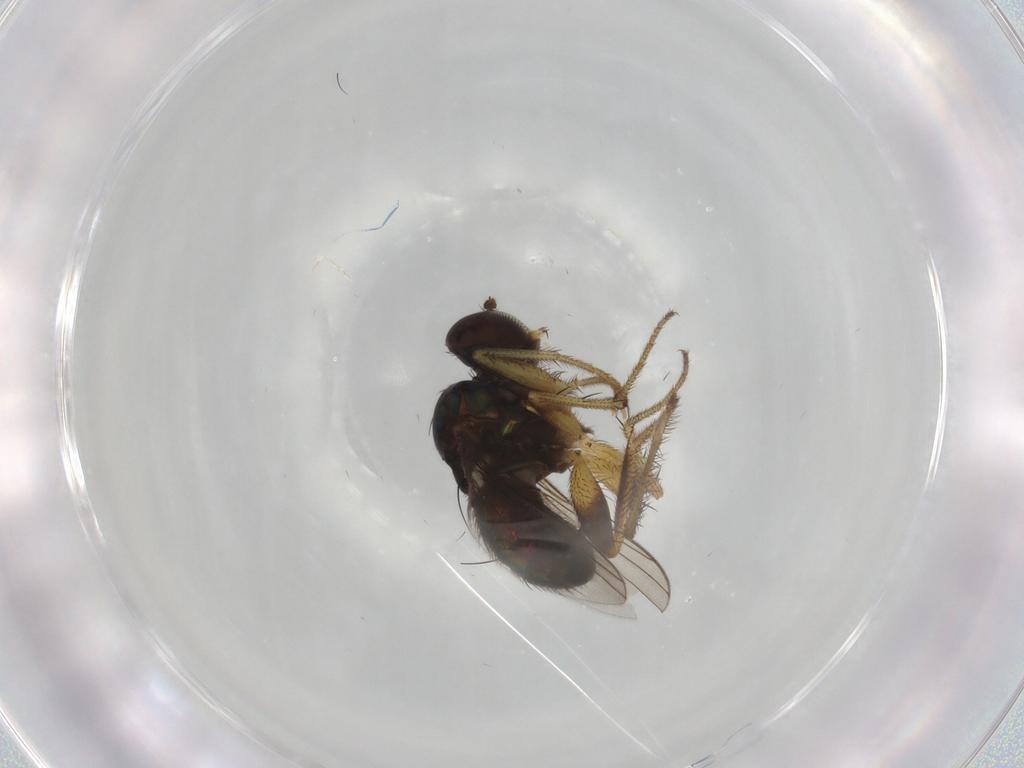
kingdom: Animalia
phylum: Arthropoda
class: Insecta
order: Diptera
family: Dolichopodidae
